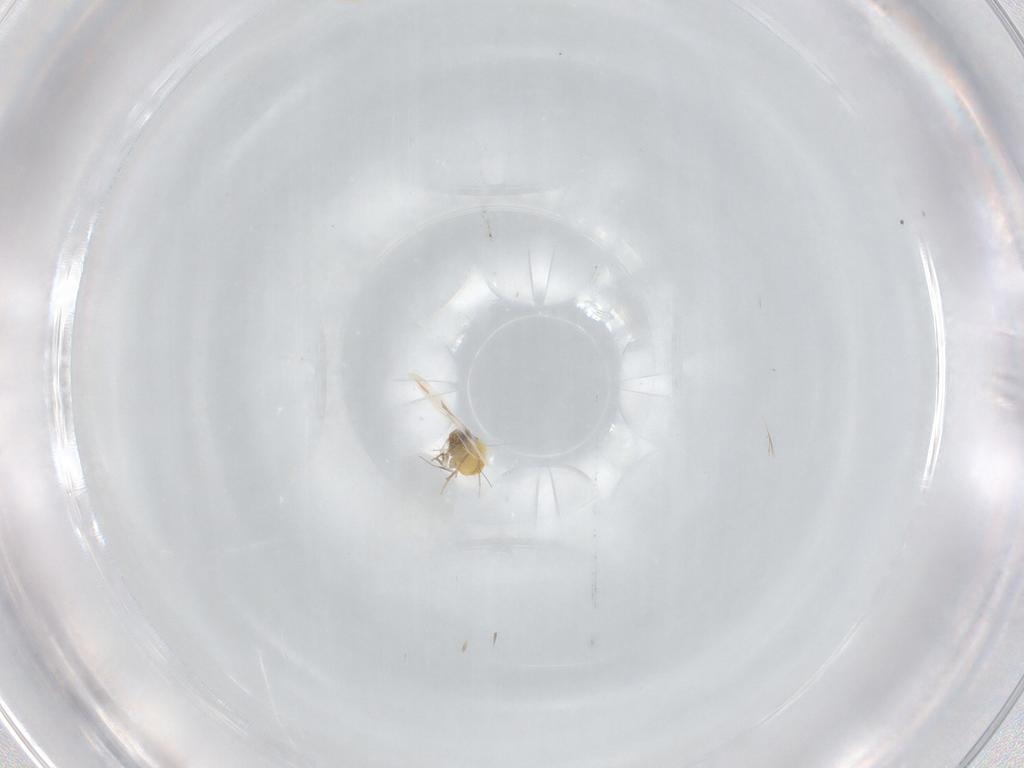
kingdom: Animalia
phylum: Arthropoda
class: Insecta
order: Hemiptera
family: Aleyrodidae
